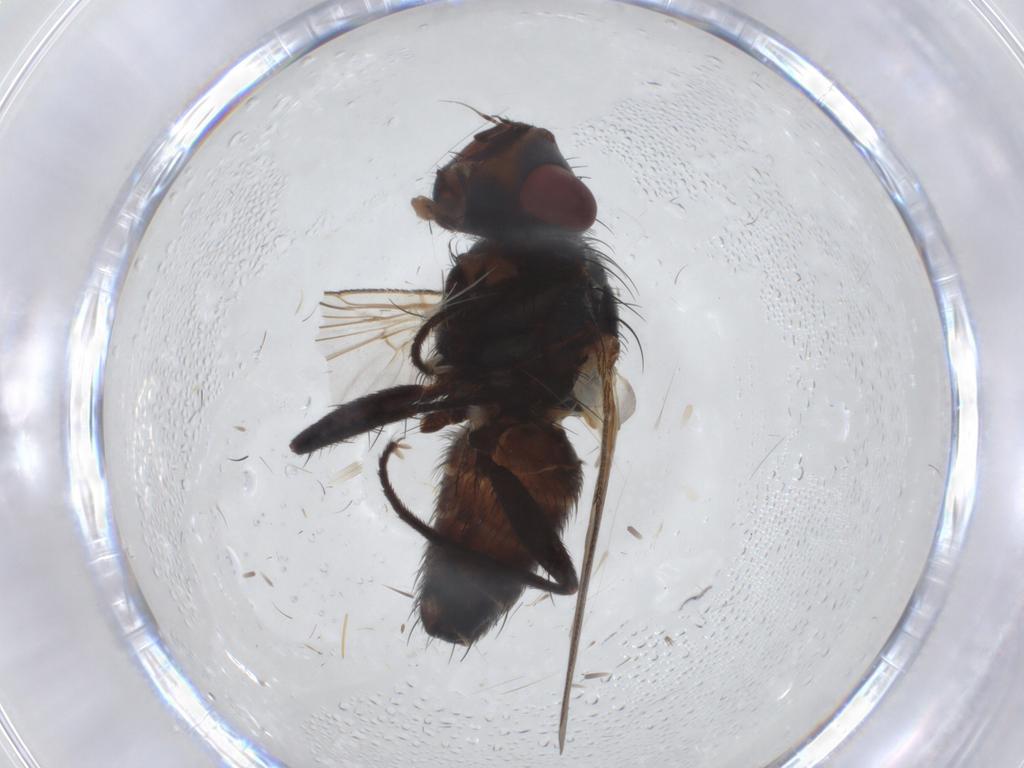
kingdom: Animalia
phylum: Arthropoda
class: Insecta
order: Diptera
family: Sarcophagidae
